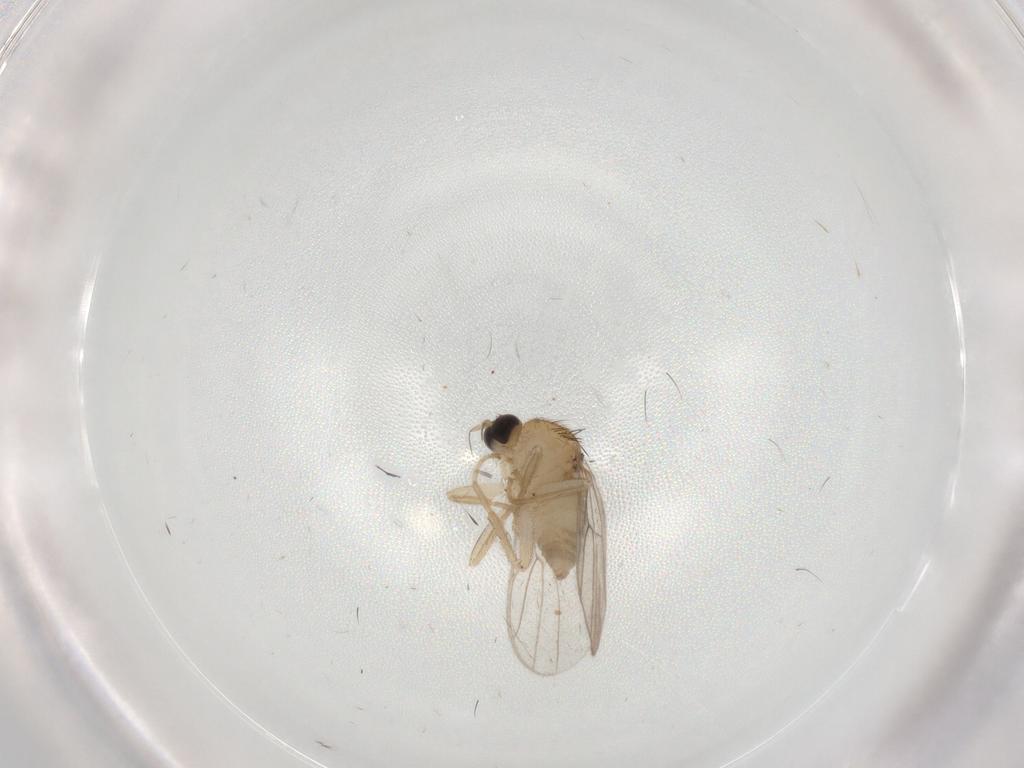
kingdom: Animalia
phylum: Arthropoda
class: Insecta
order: Diptera
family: Hybotidae
